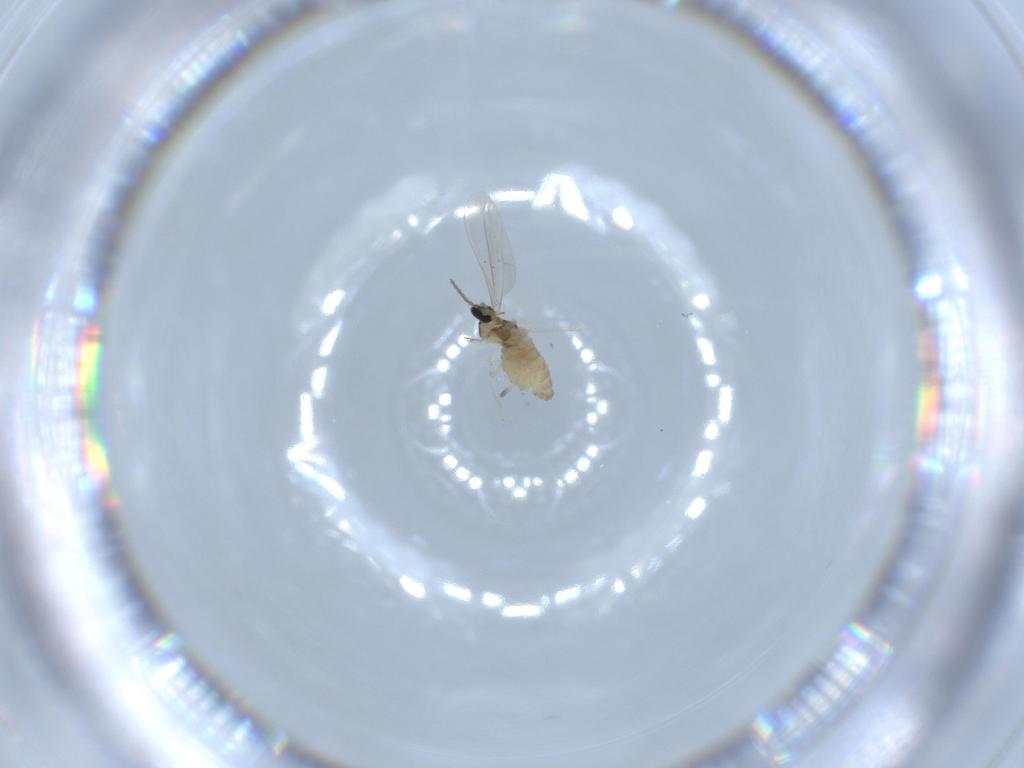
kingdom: Animalia
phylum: Arthropoda
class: Insecta
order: Diptera
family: Cecidomyiidae
